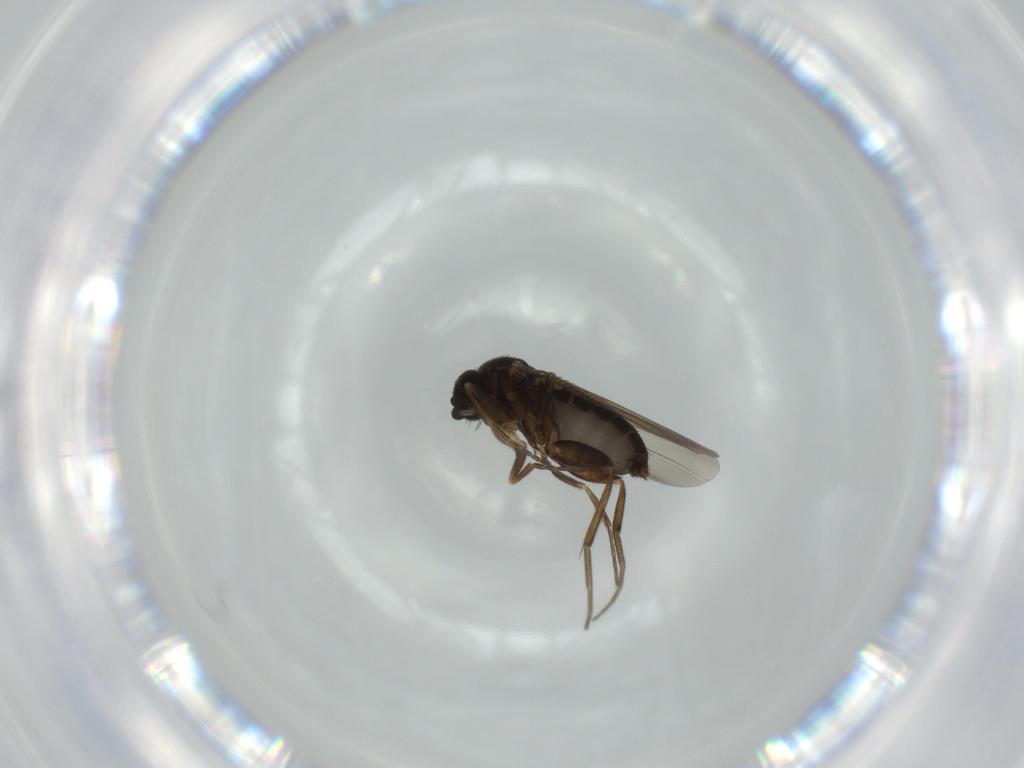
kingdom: Animalia
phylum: Arthropoda
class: Insecta
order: Diptera
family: Phoridae
